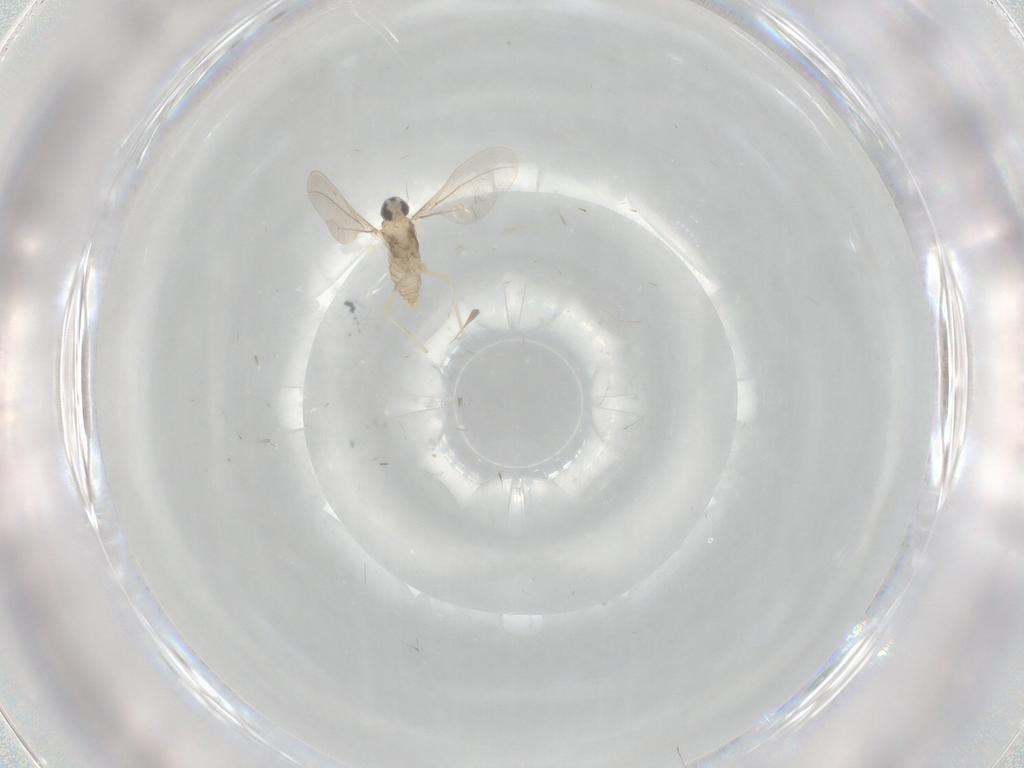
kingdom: Animalia
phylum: Arthropoda
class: Insecta
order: Diptera
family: Cecidomyiidae
